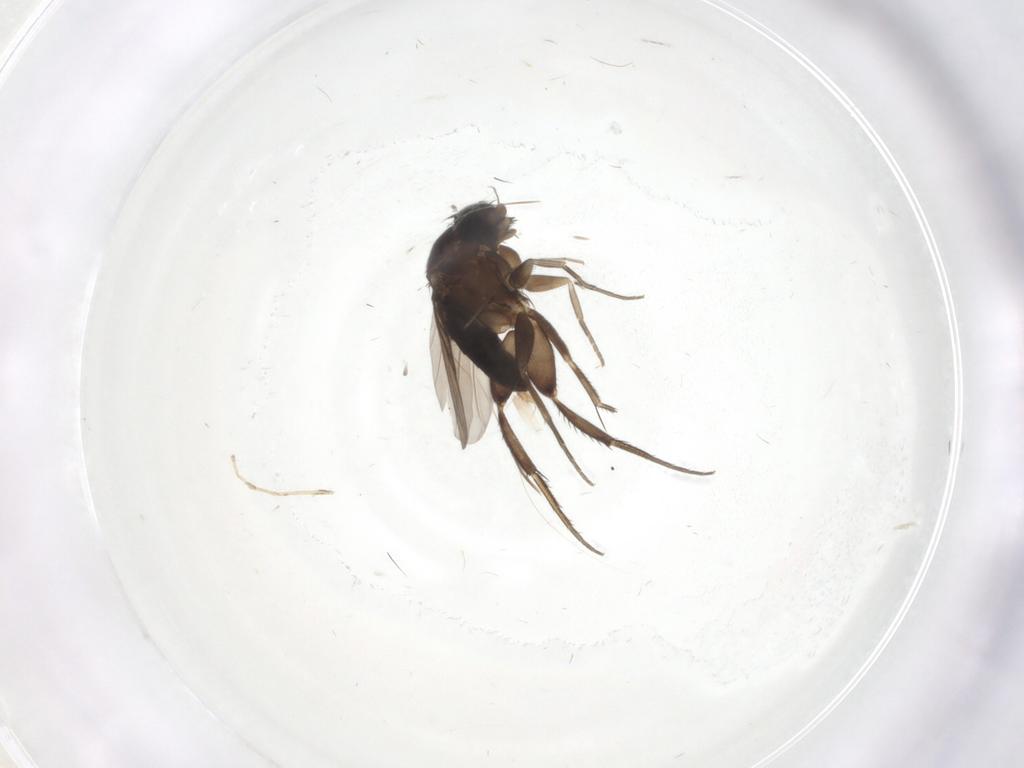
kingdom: Animalia
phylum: Arthropoda
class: Insecta
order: Diptera
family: Phoridae
